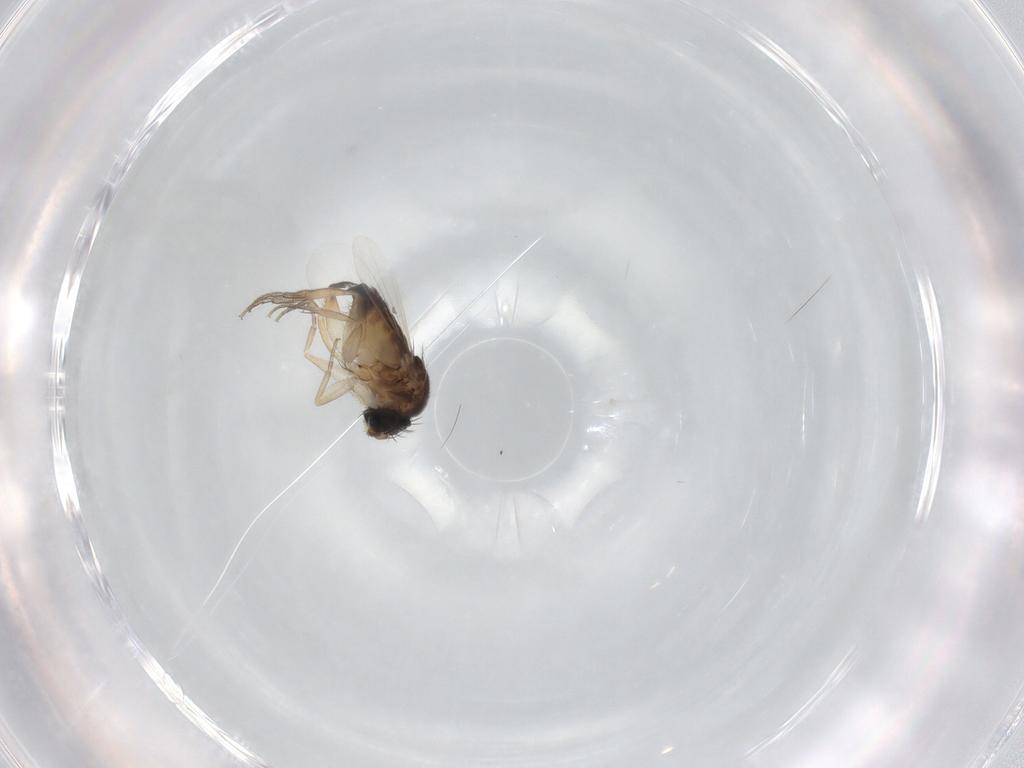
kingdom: Animalia
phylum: Arthropoda
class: Insecta
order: Diptera
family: Phoridae
